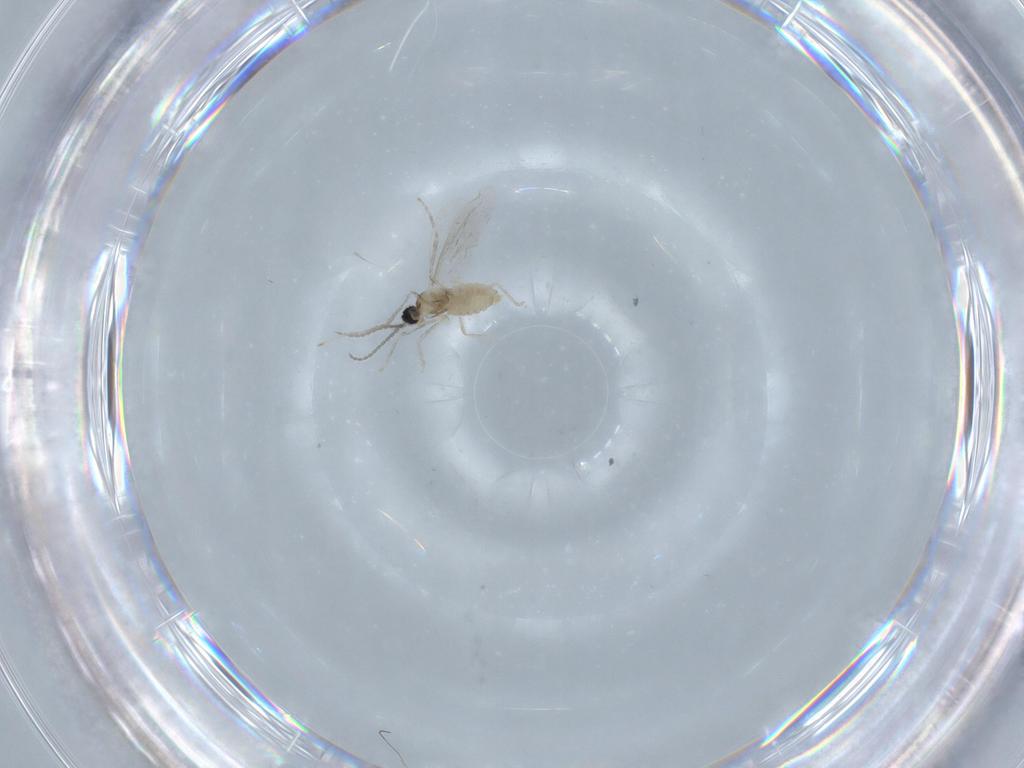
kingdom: Animalia
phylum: Arthropoda
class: Insecta
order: Diptera
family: Cecidomyiidae
